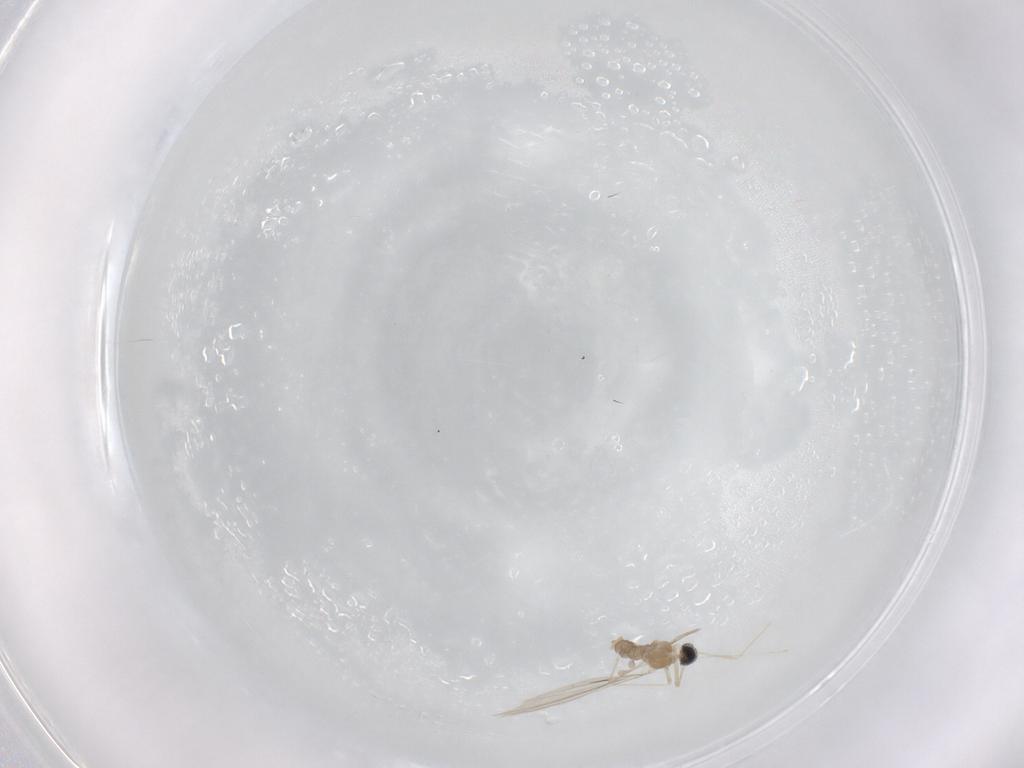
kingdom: Animalia
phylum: Arthropoda
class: Insecta
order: Diptera
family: Cecidomyiidae
